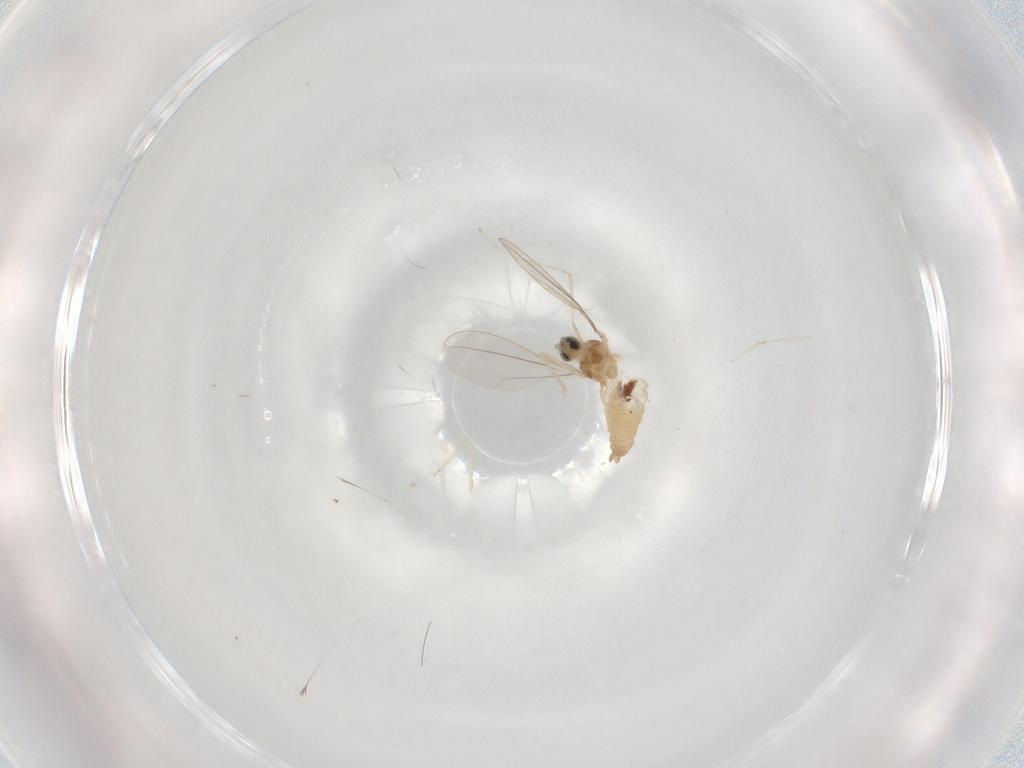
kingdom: Animalia
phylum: Arthropoda
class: Insecta
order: Diptera
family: Cecidomyiidae
